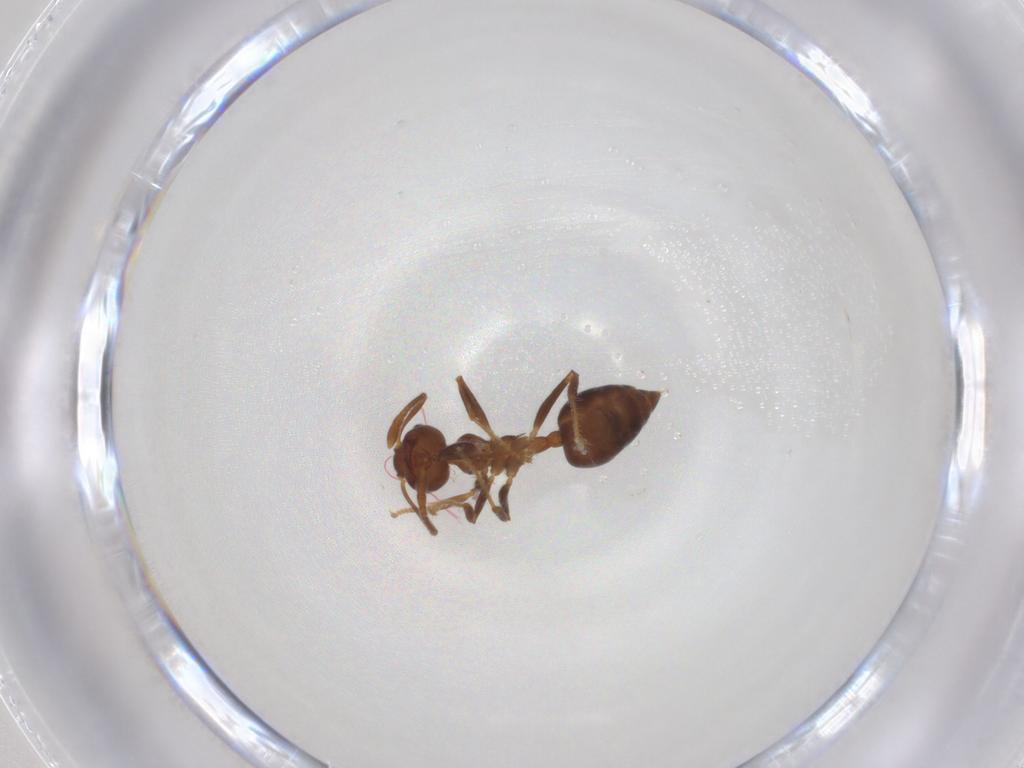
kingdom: Animalia
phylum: Arthropoda
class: Insecta
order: Hymenoptera
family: Formicidae
